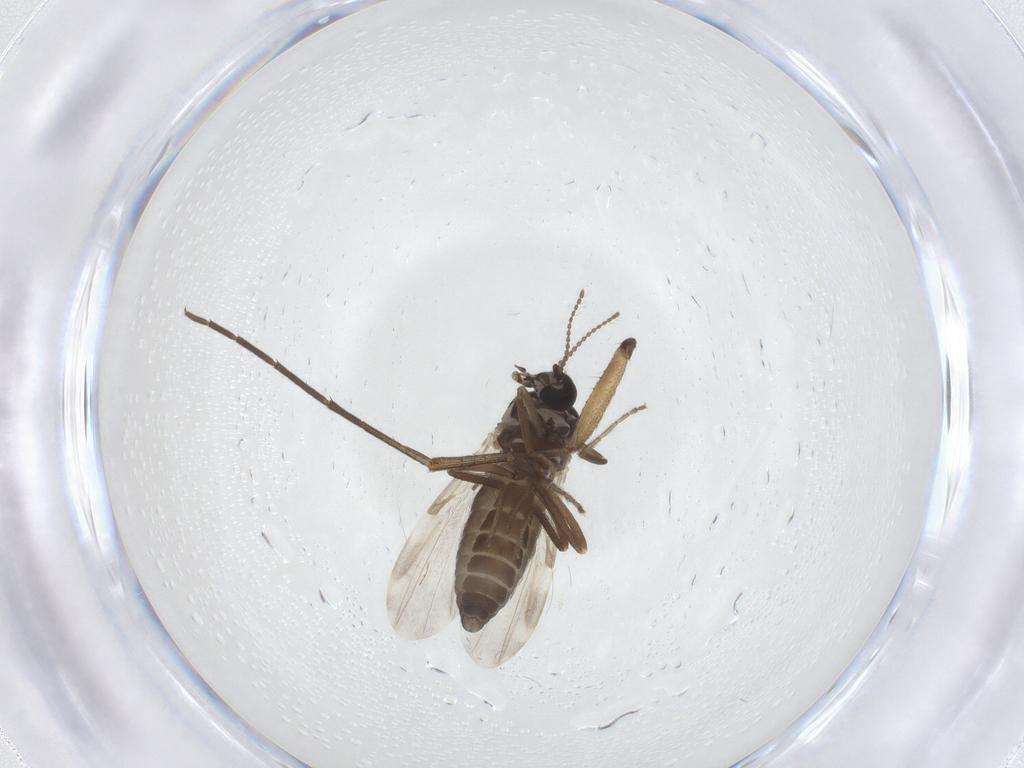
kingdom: Animalia
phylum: Arthropoda
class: Insecta
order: Diptera
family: Ceratopogonidae
